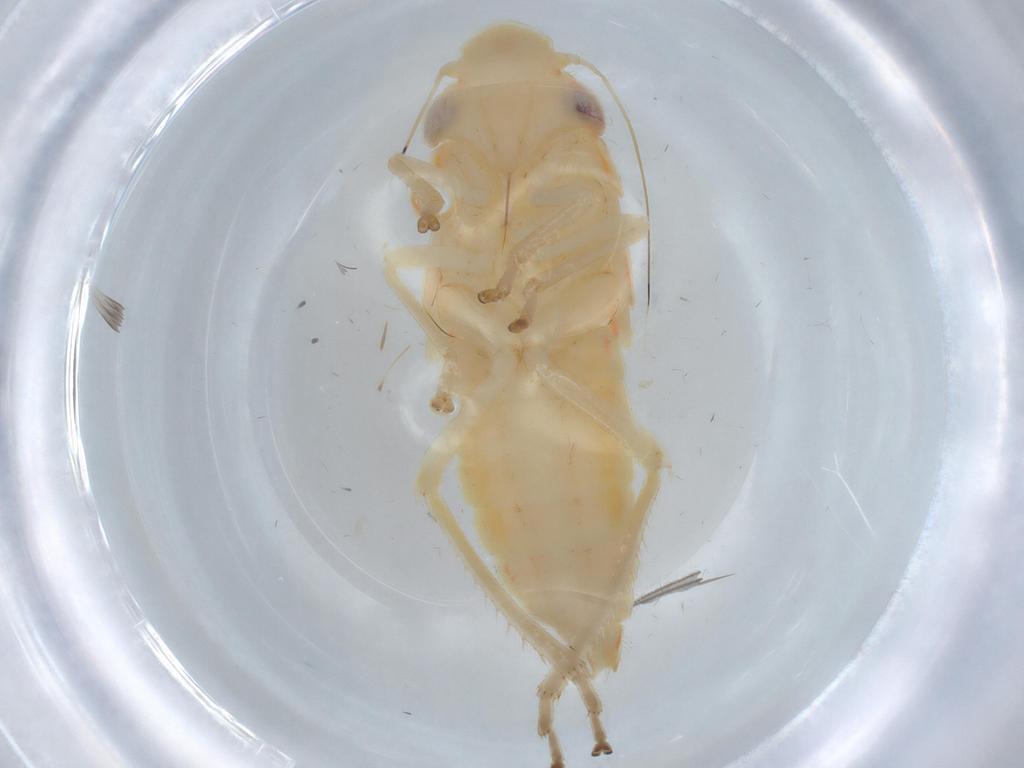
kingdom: Animalia
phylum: Arthropoda
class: Insecta
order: Hemiptera
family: Cicadellidae
